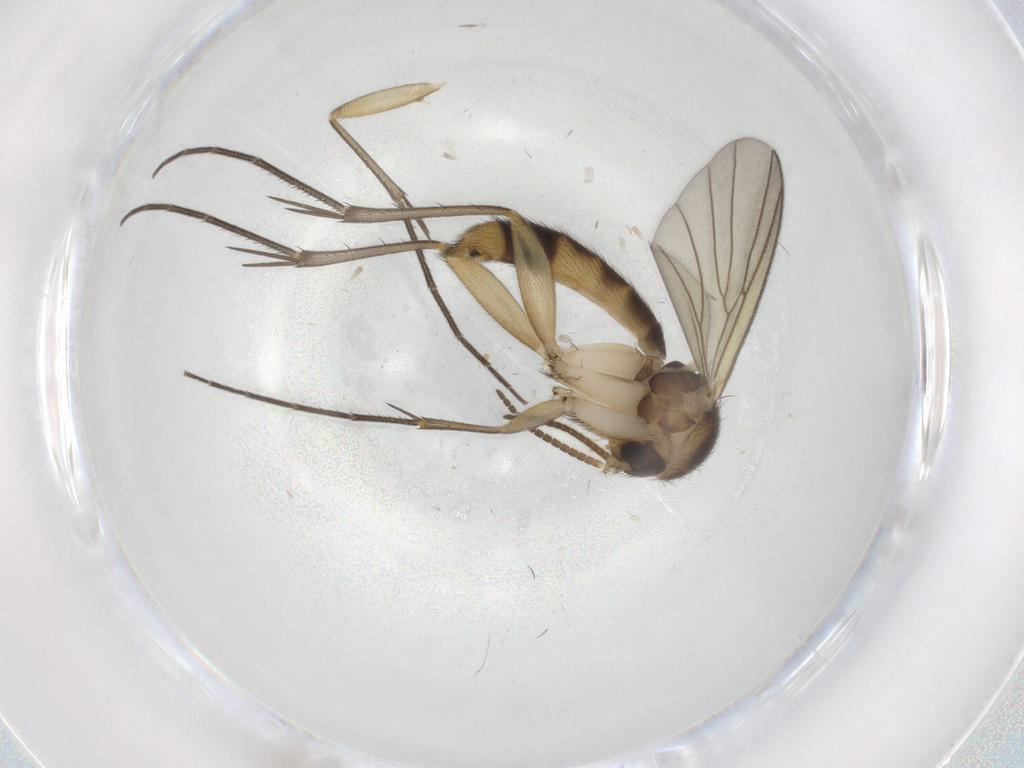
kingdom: Animalia
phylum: Arthropoda
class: Insecta
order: Diptera
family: Mycetophilidae
